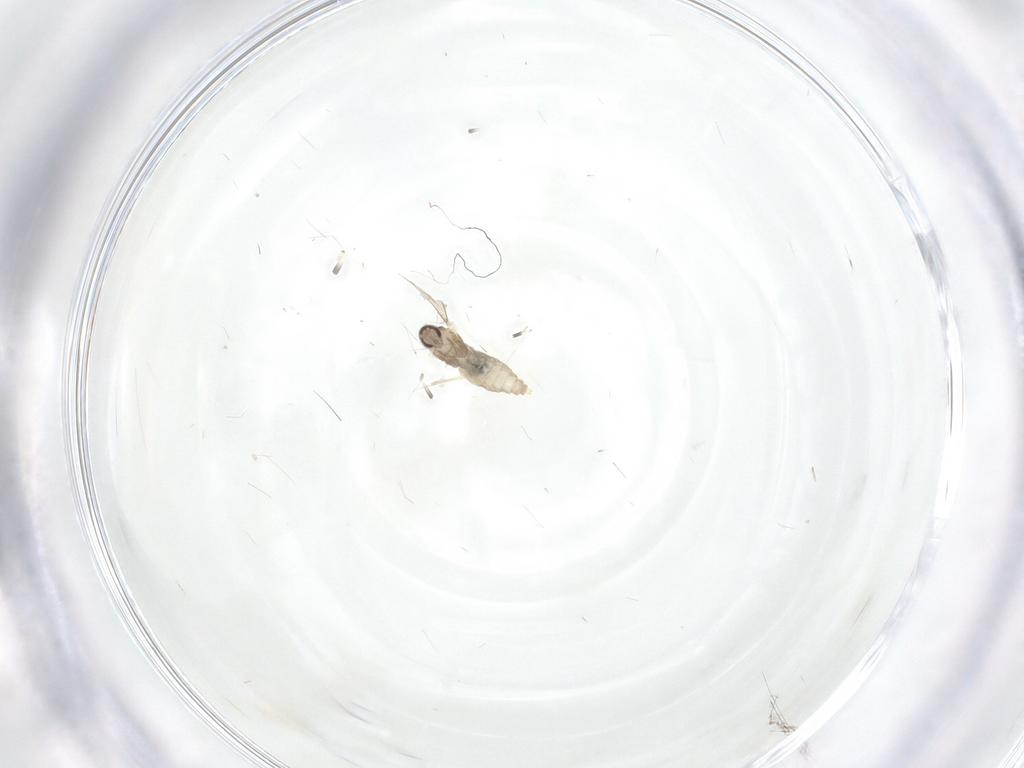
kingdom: Animalia
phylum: Arthropoda
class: Insecta
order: Diptera
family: Cecidomyiidae
